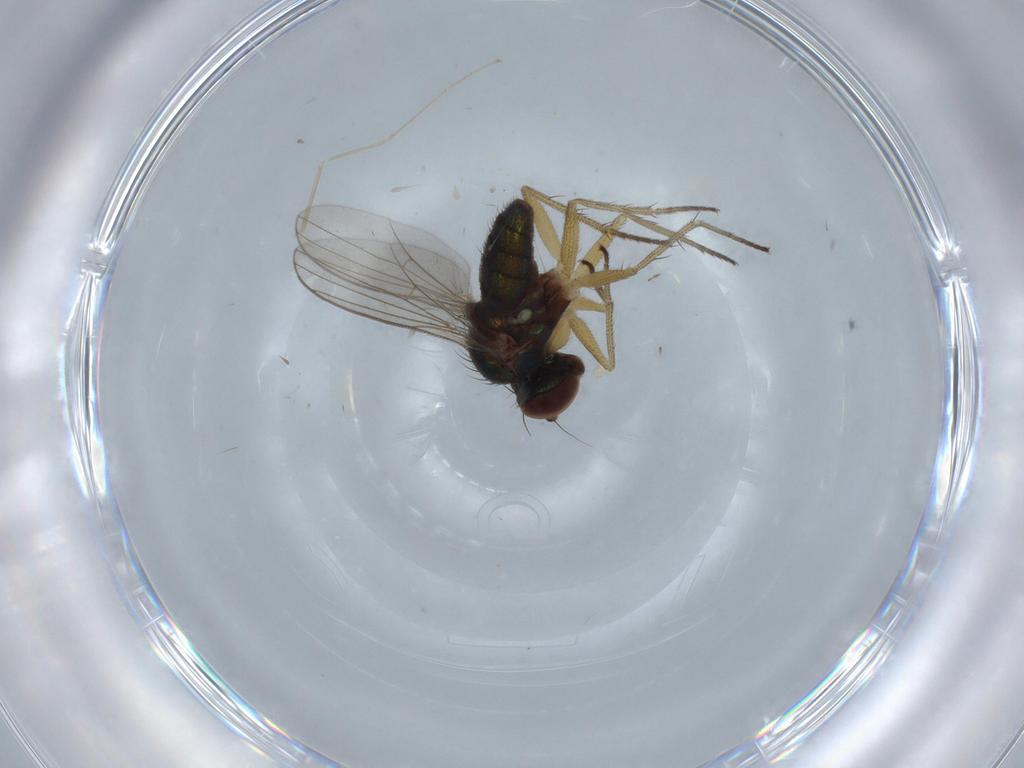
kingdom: Animalia
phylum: Arthropoda
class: Insecta
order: Diptera
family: Cecidomyiidae
